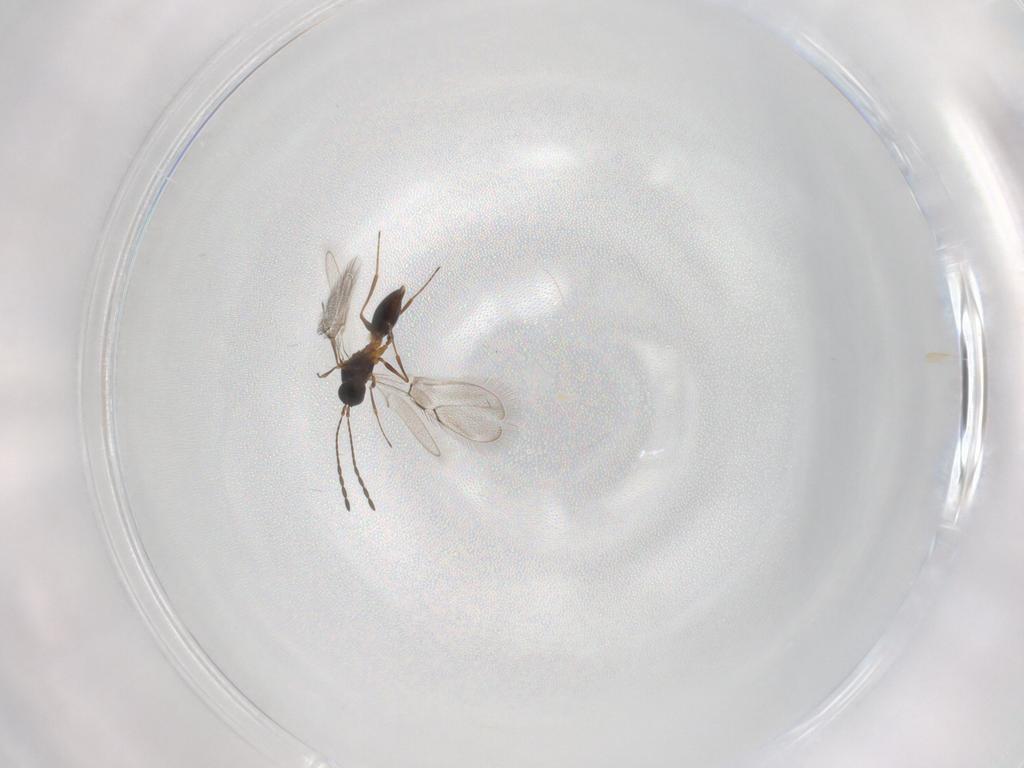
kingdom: Animalia
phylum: Arthropoda
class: Insecta
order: Hymenoptera
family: Figitidae
